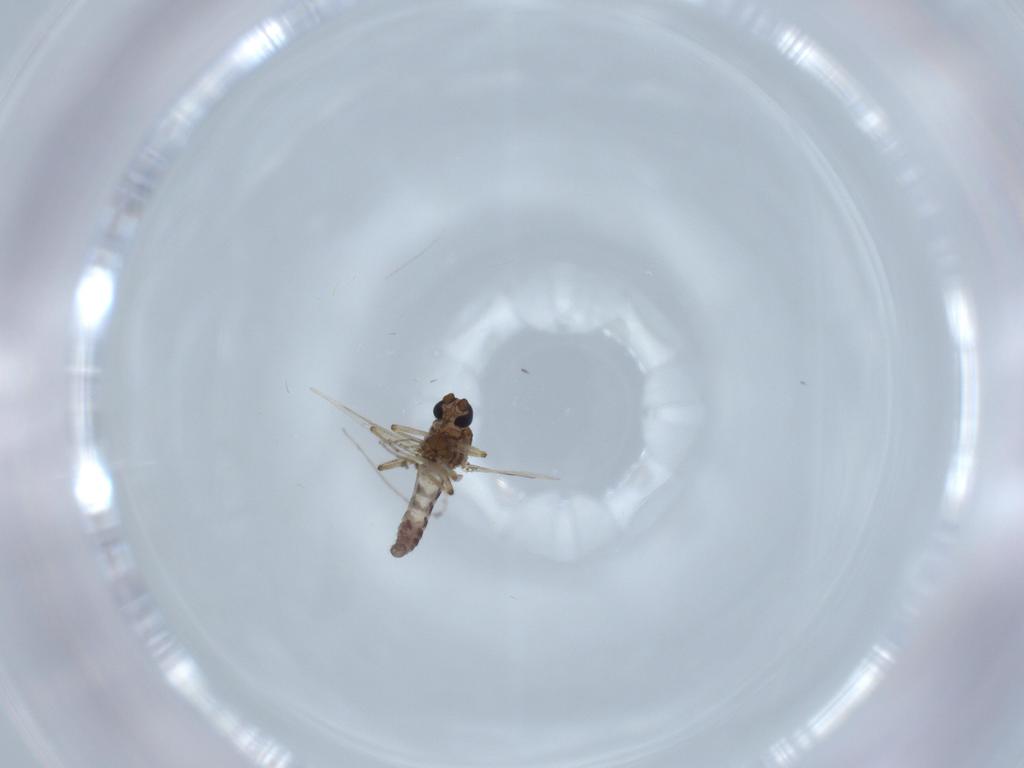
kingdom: Animalia
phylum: Arthropoda
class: Insecta
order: Diptera
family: Ceratopogonidae
